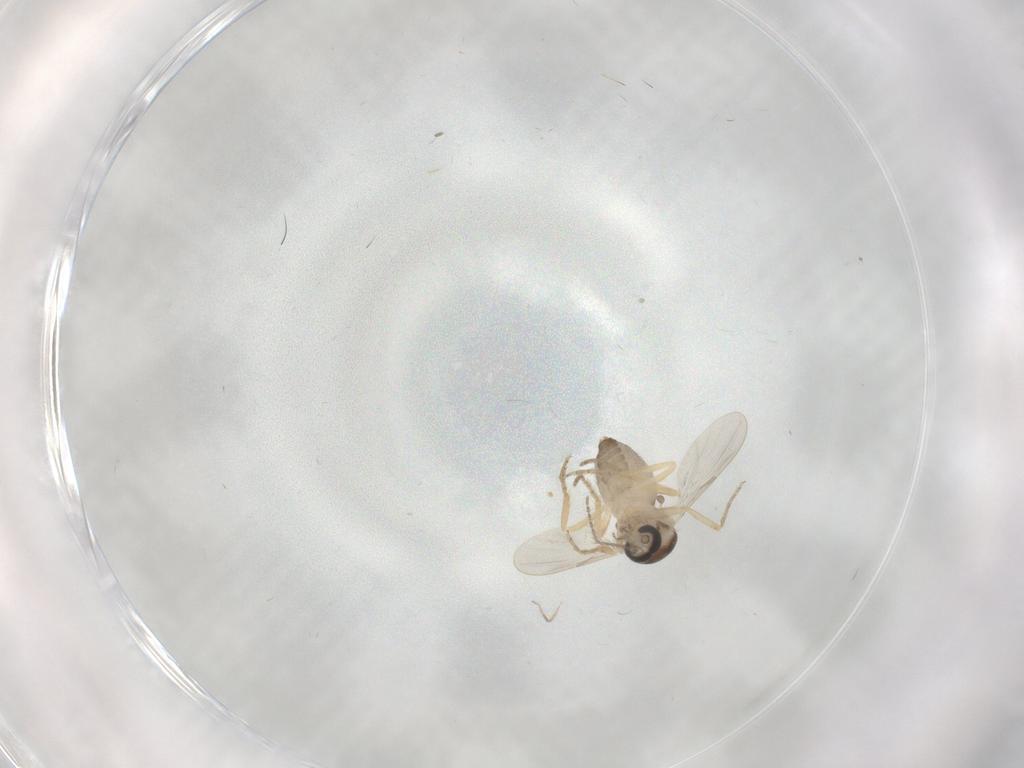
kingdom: Animalia
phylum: Arthropoda
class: Insecta
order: Diptera
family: Ceratopogonidae
